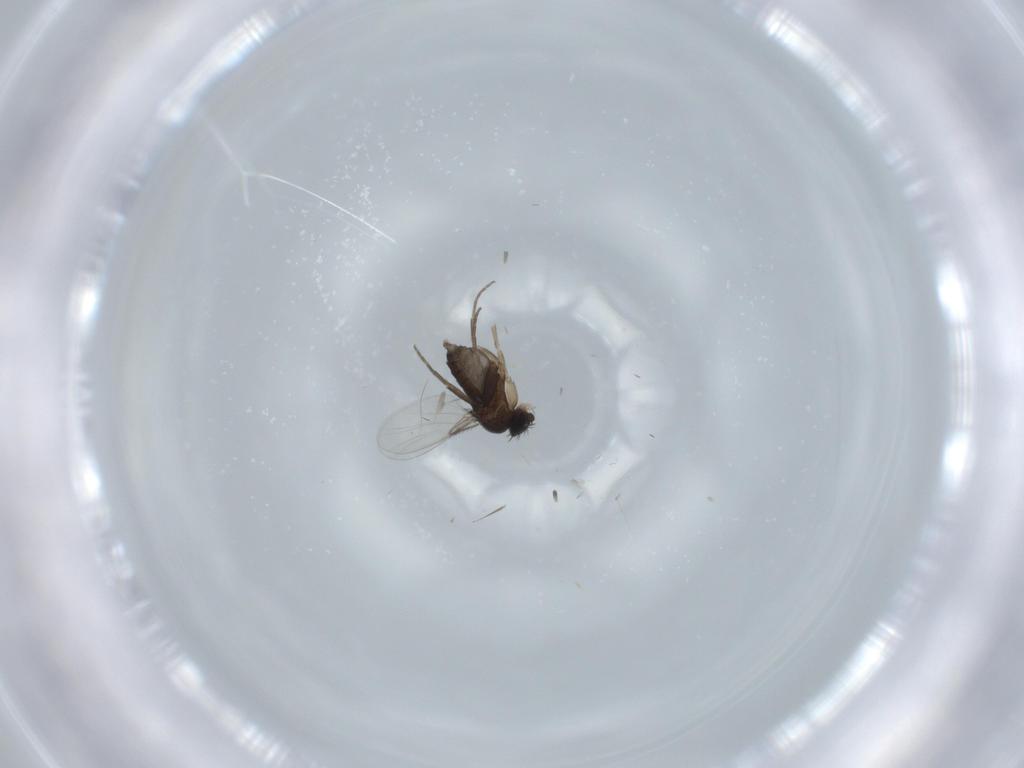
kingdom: Animalia
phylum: Arthropoda
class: Insecta
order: Diptera
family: Phoridae
